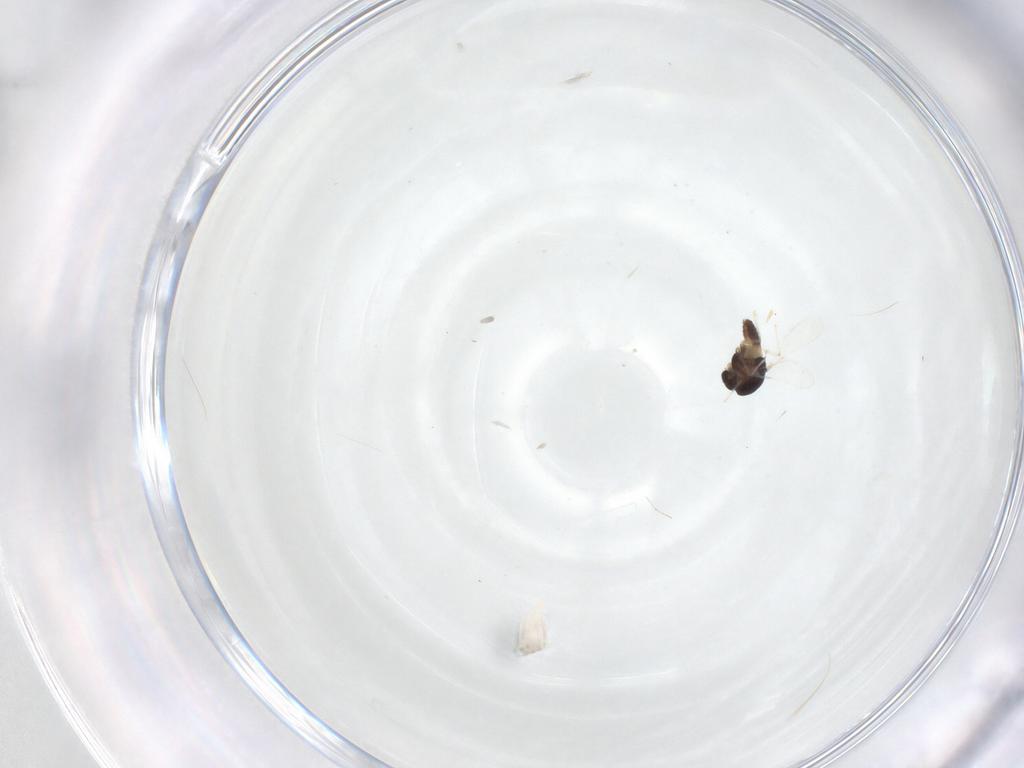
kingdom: Animalia
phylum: Arthropoda
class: Insecta
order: Diptera
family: Chironomidae
